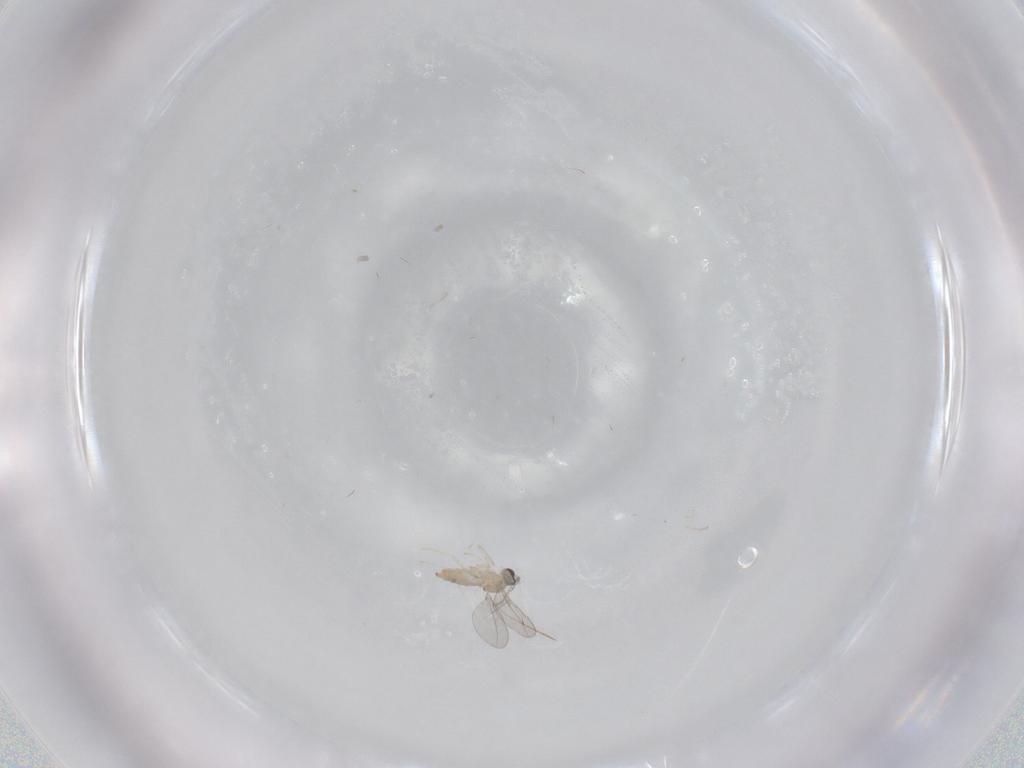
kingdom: Animalia
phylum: Arthropoda
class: Insecta
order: Diptera
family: Cecidomyiidae
